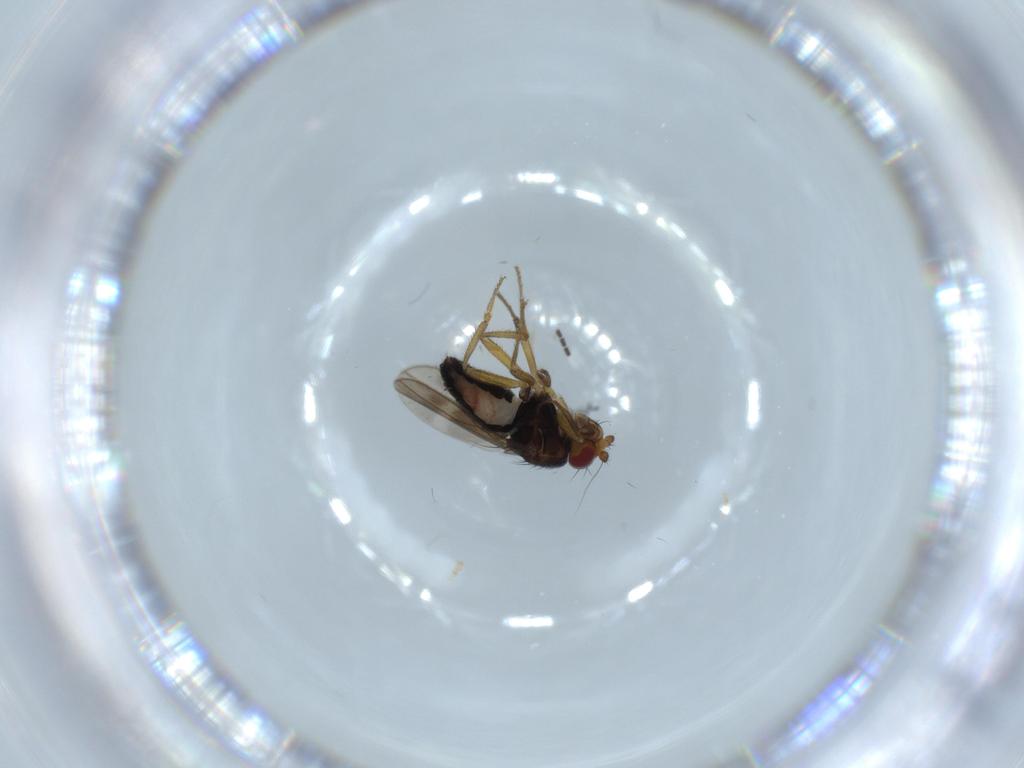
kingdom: Animalia
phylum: Arthropoda
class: Insecta
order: Diptera
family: Sphaeroceridae
